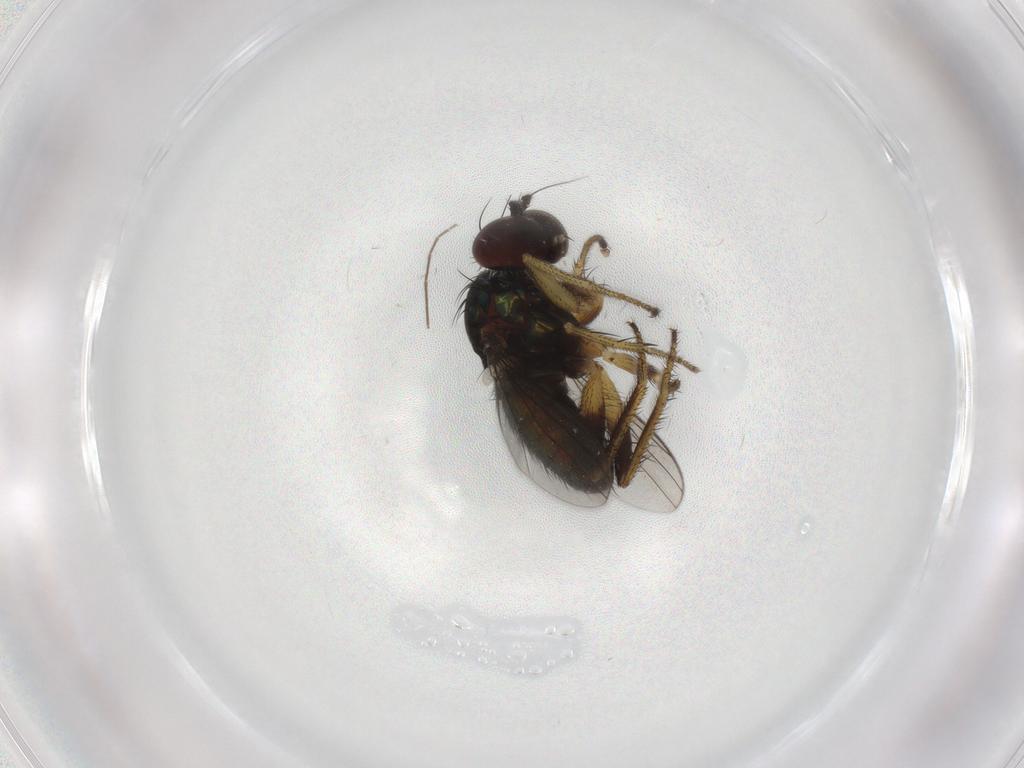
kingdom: Animalia
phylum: Arthropoda
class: Insecta
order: Diptera
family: Dolichopodidae
